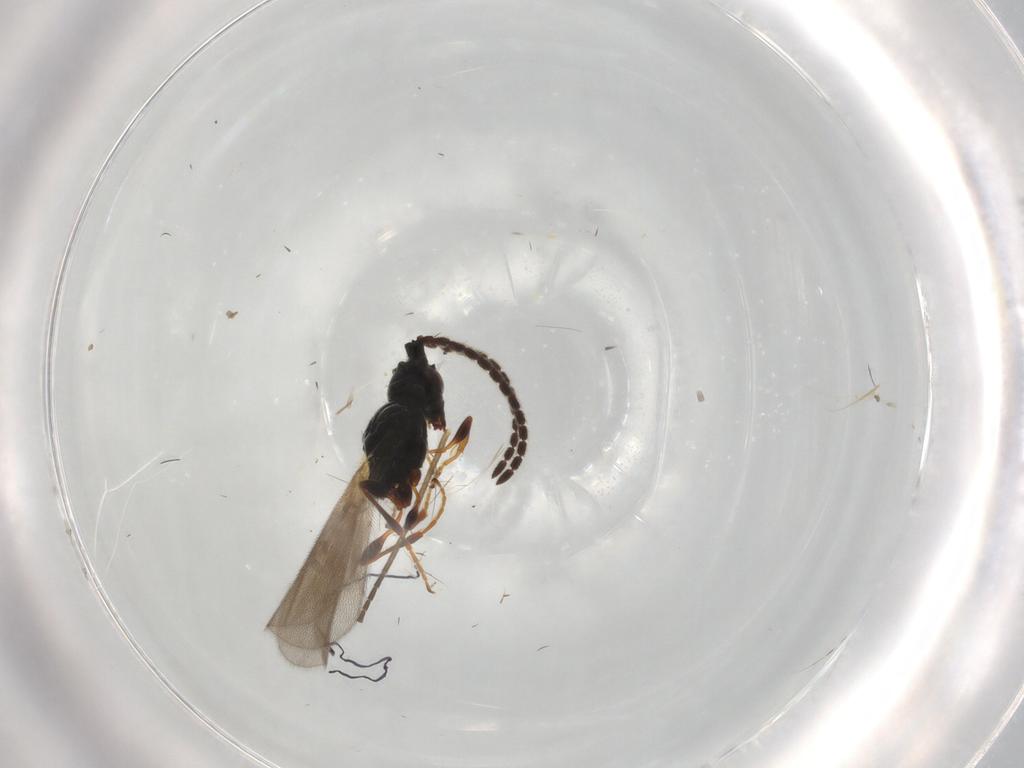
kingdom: Animalia
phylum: Arthropoda
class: Insecta
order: Hymenoptera
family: Diapriidae
